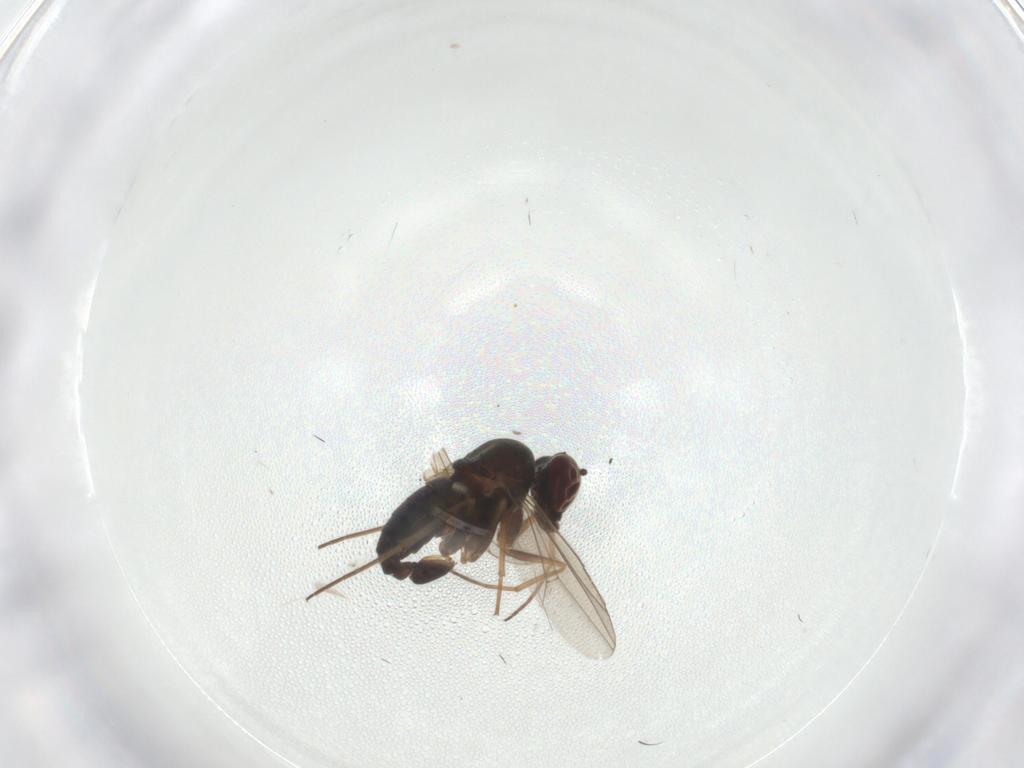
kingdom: Animalia
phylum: Arthropoda
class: Insecta
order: Diptera
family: Dolichopodidae
